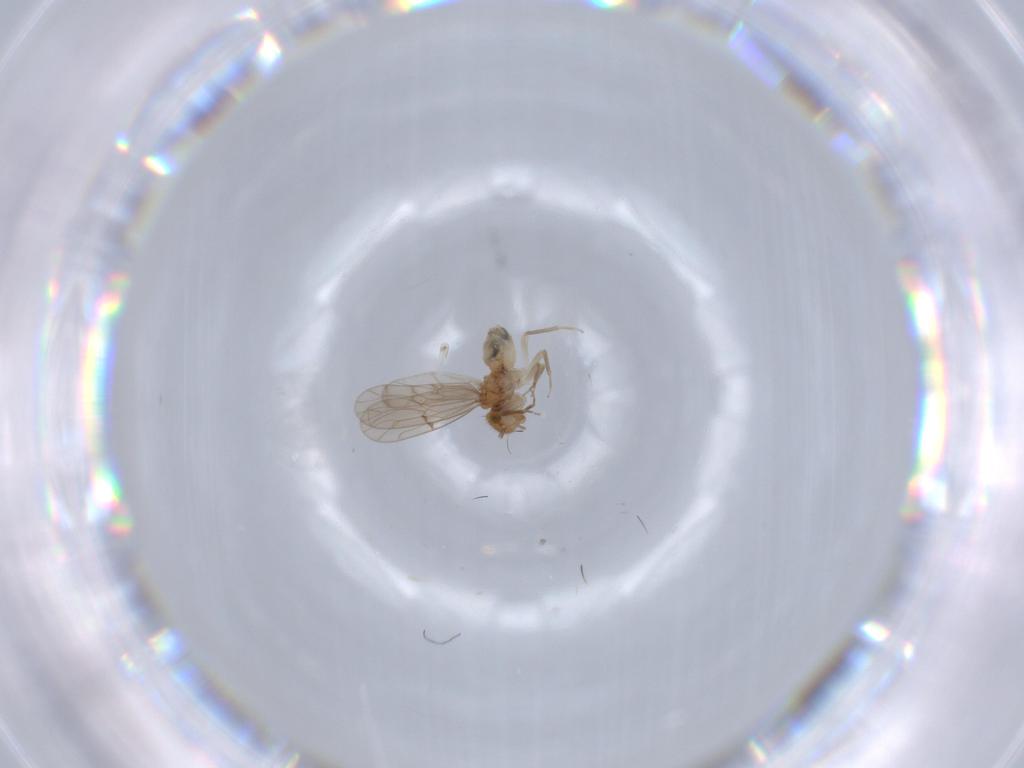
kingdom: Animalia
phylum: Arthropoda
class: Insecta
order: Psocodea
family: Ectopsocidae
